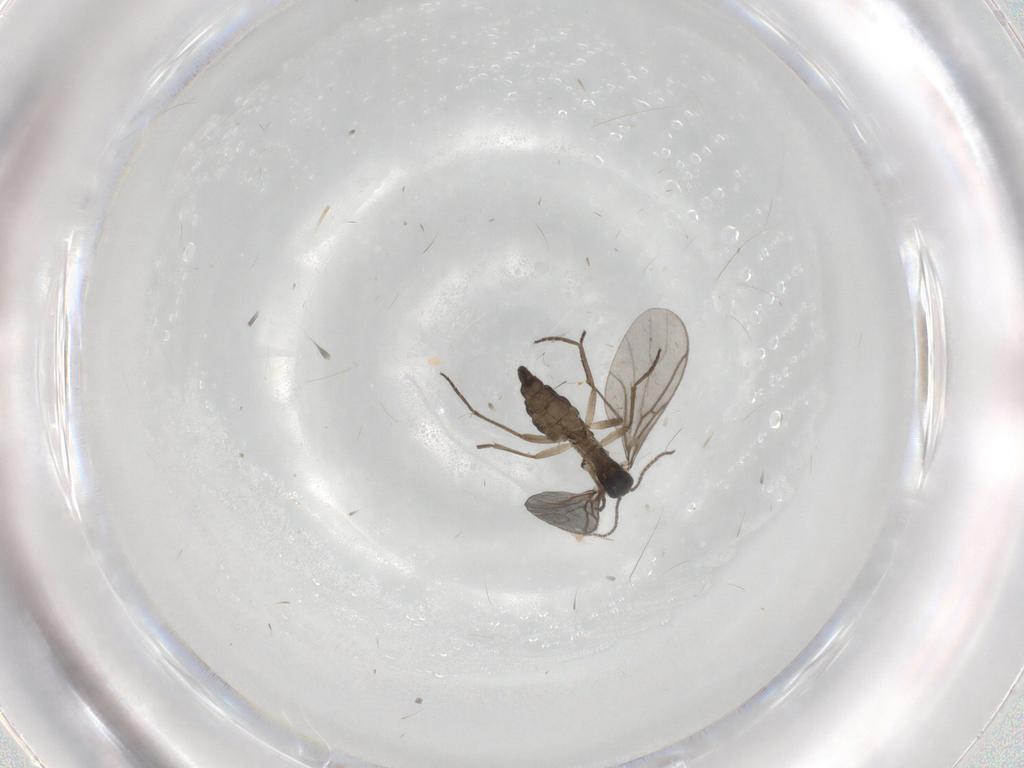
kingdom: Animalia
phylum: Arthropoda
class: Insecta
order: Diptera
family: Sciaridae
